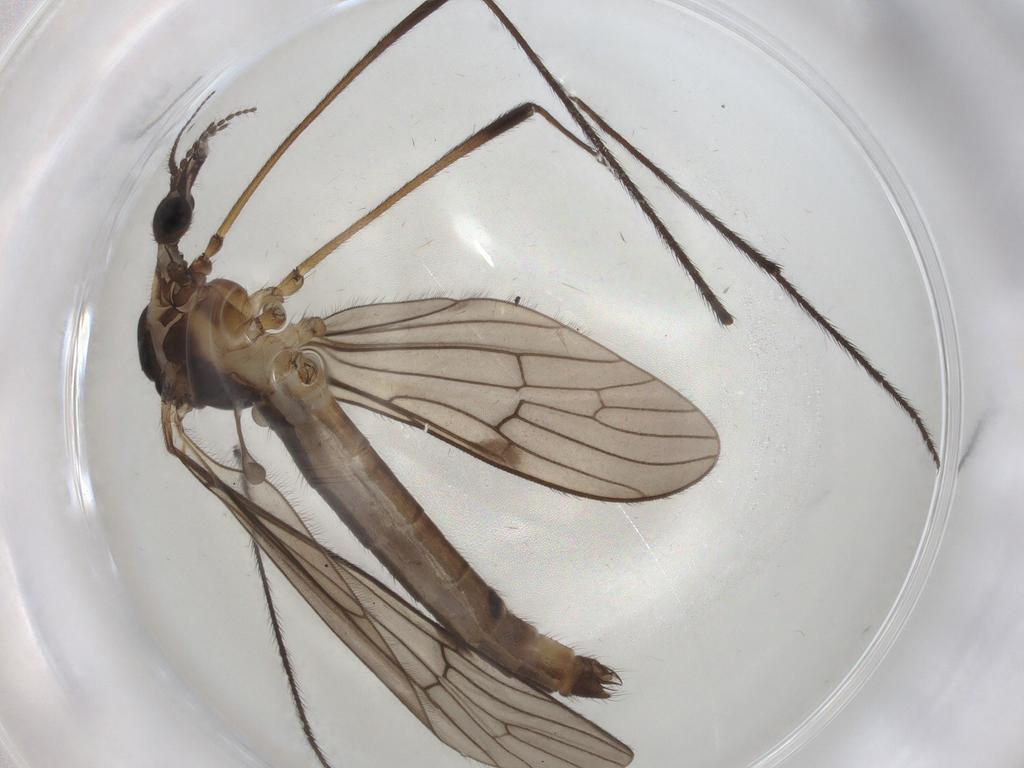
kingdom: Animalia
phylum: Arthropoda
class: Insecta
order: Diptera
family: Limoniidae
